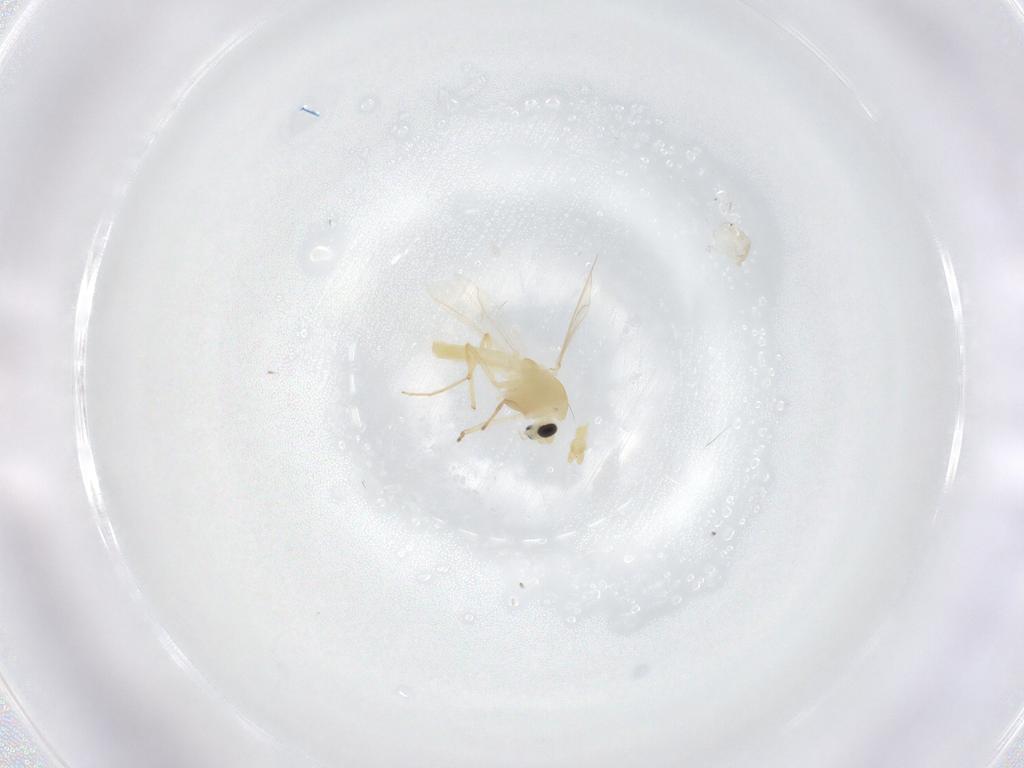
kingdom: Animalia
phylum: Arthropoda
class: Insecta
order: Diptera
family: Chironomidae
